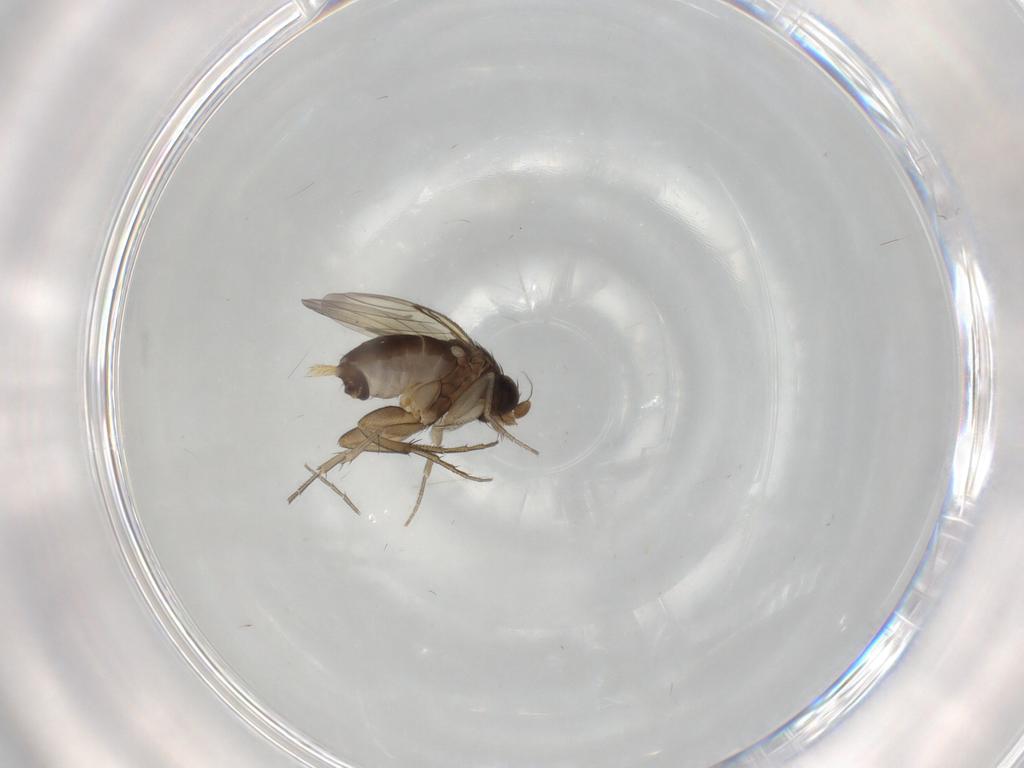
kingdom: Animalia
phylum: Arthropoda
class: Insecta
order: Diptera
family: Phoridae
